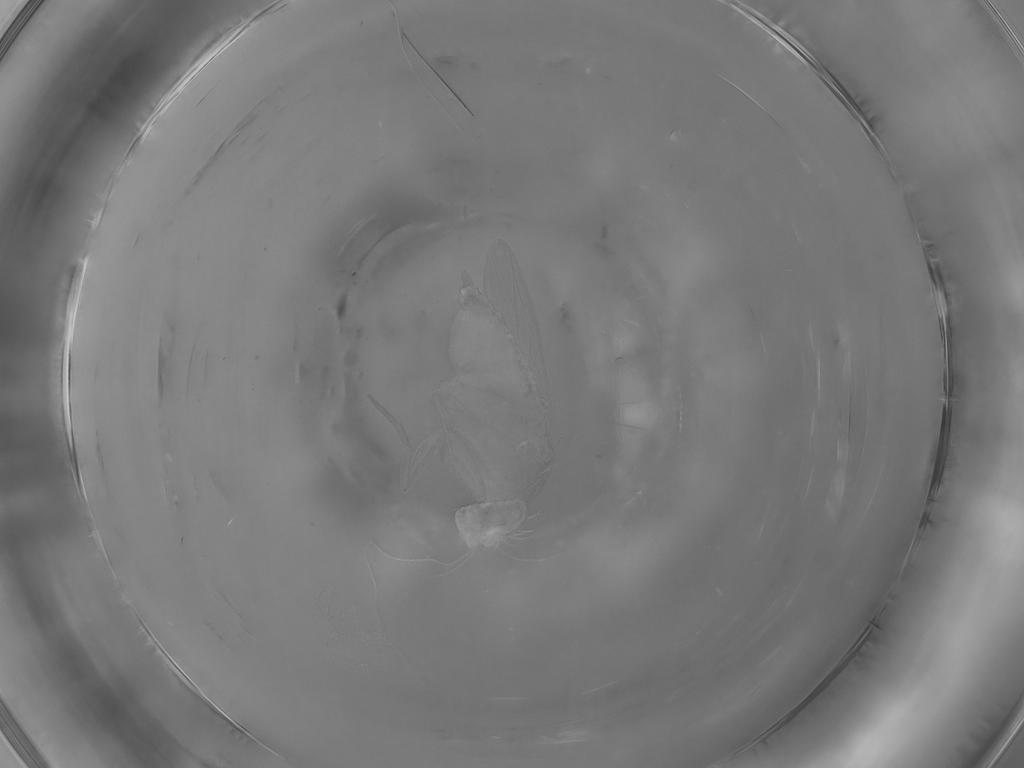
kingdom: Animalia
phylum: Arthropoda
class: Insecta
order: Diptera
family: Phoridae
